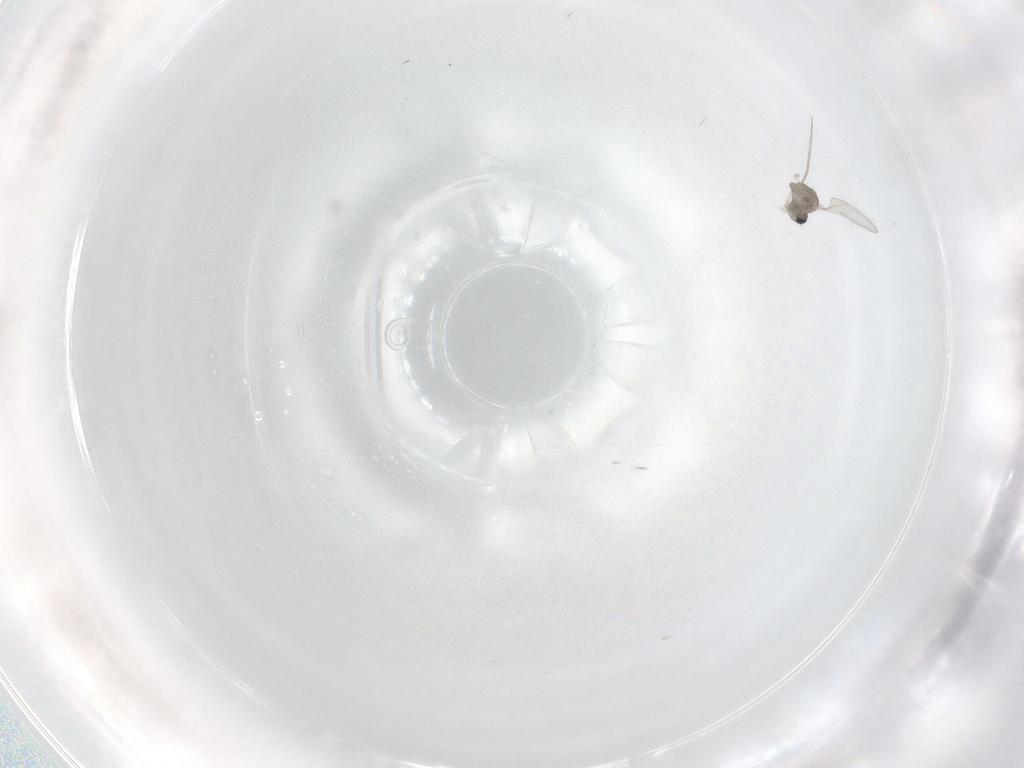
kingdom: Animalia
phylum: Arthropoda
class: Insecta
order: Diptera
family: Cecidomyiidae
